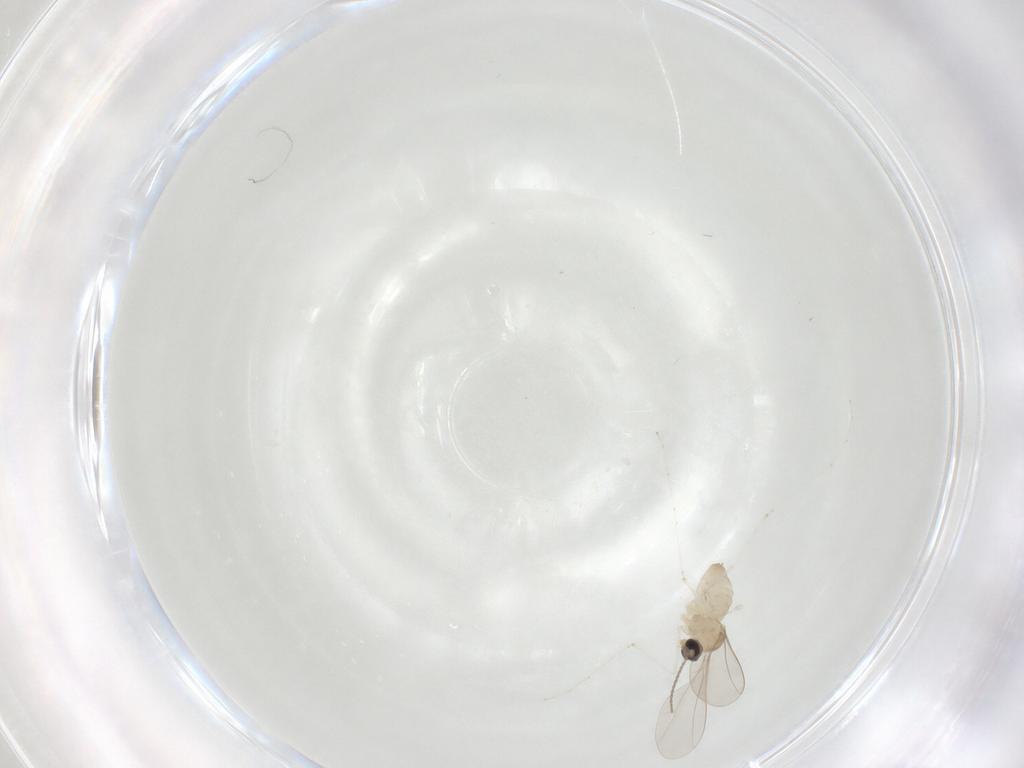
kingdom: Animalia
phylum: Arthropoda
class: Insecta
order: Diptera
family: Cecidomyiidae
